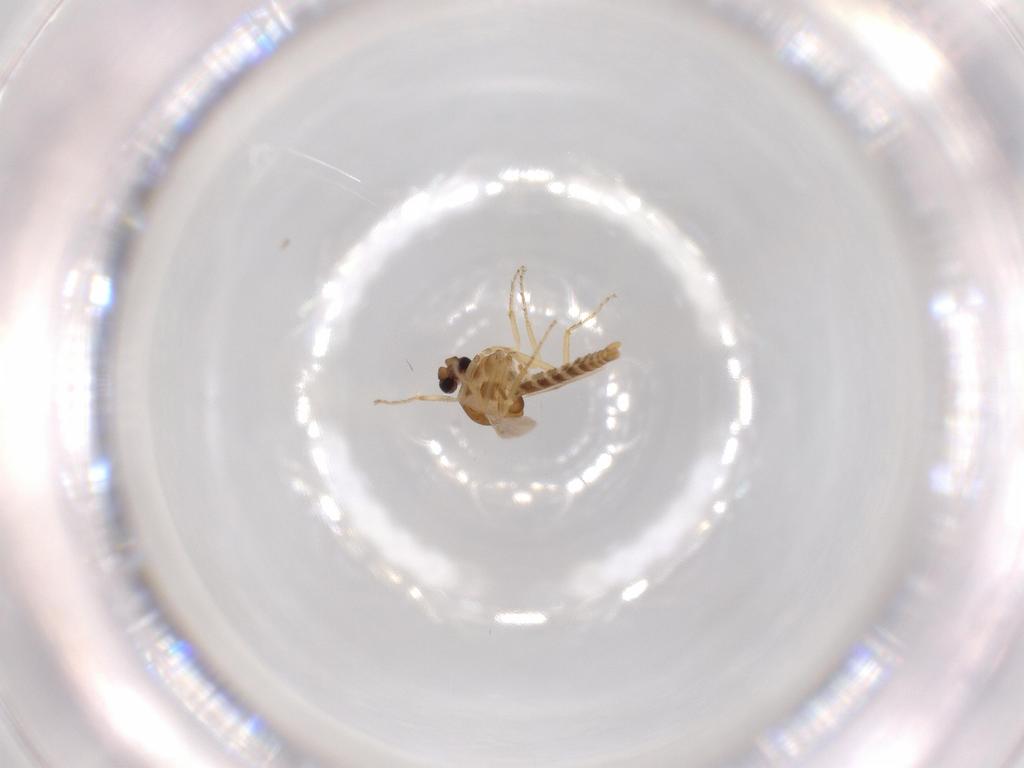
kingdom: Animalia
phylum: Arthropoda
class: Insecta
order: Diptera
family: Ceratopogonidae
